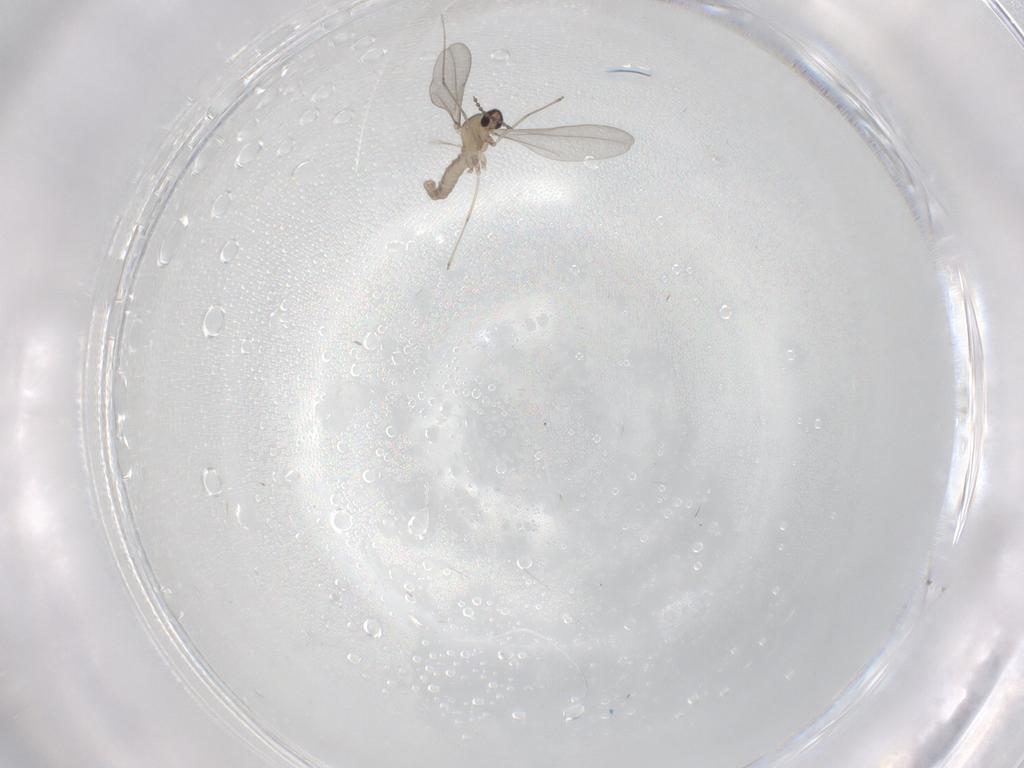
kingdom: Animalia
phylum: Arthropoda
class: Insecta
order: Diptera
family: Cecidomyiidae
